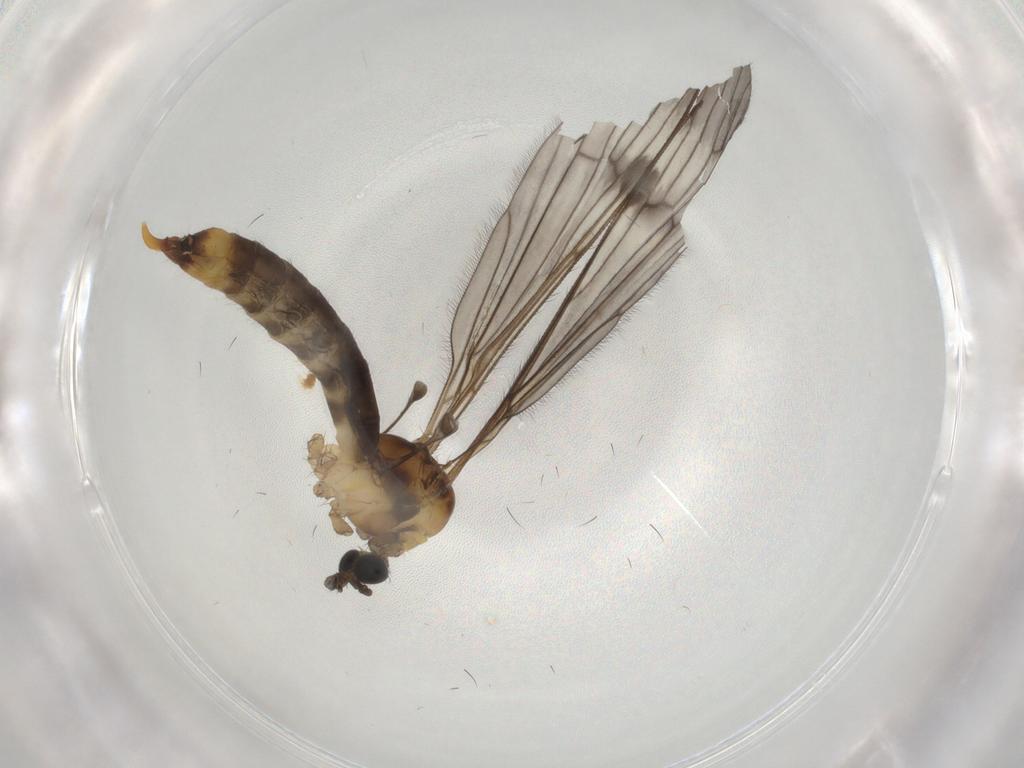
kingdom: Animalia
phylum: Arthropoda
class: Insecta
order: Diptera
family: Limoniidae
